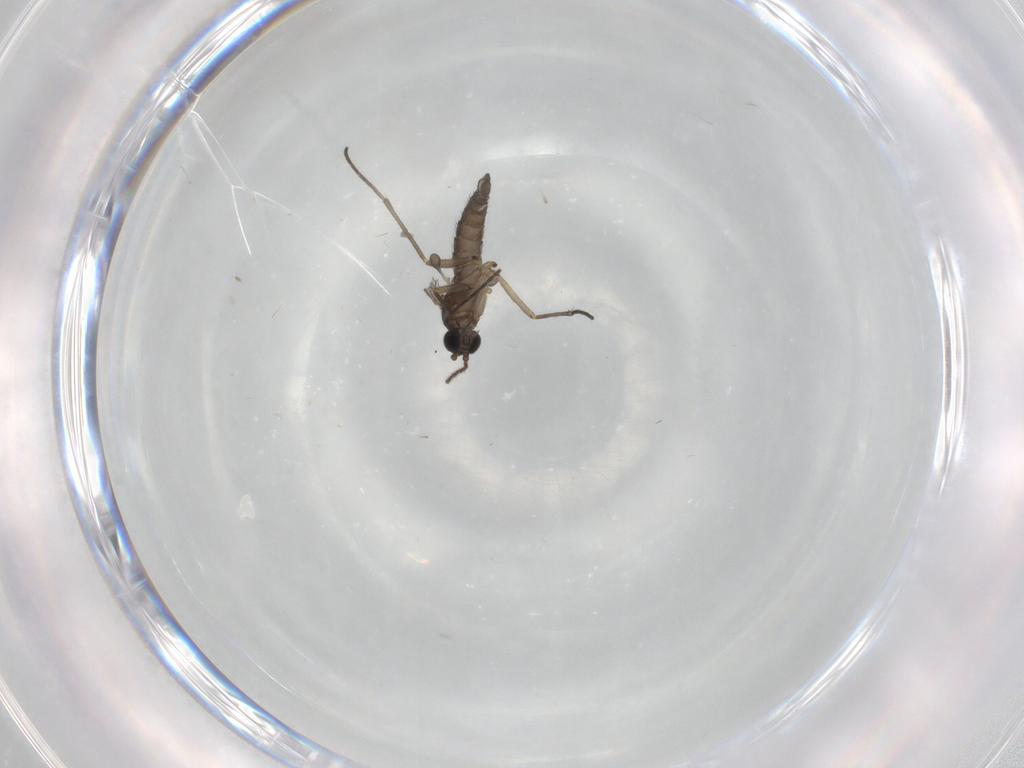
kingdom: Animalia
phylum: Arthropoda
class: Insecta
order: Diptera
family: Sciaridae
